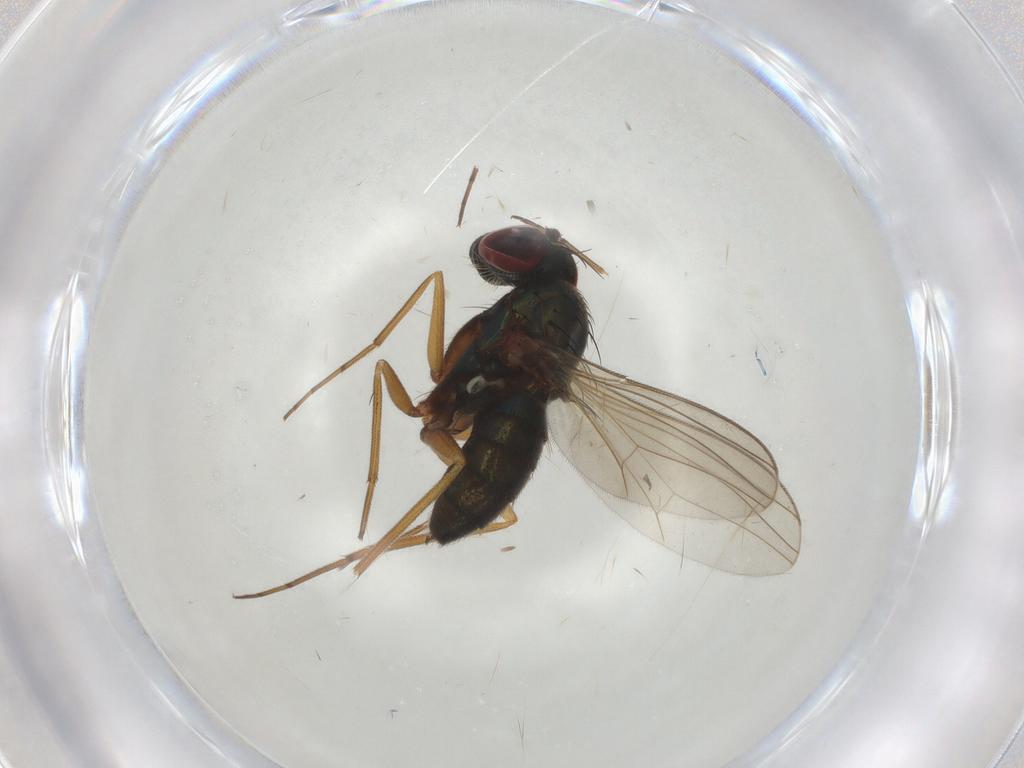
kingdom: Animalia
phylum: Arthropoda
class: Insecta
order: Diptera
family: Dolichopodidae
